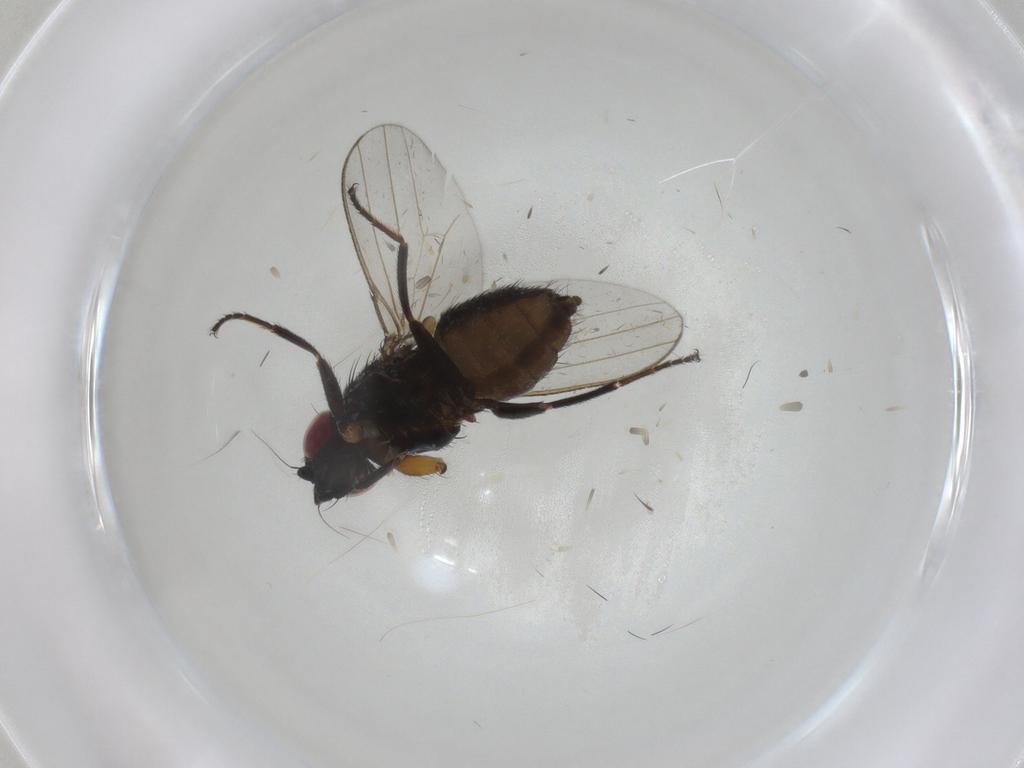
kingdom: Animalia
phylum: Arthropoda
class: Insecta
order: Diptera
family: Milichiidae
